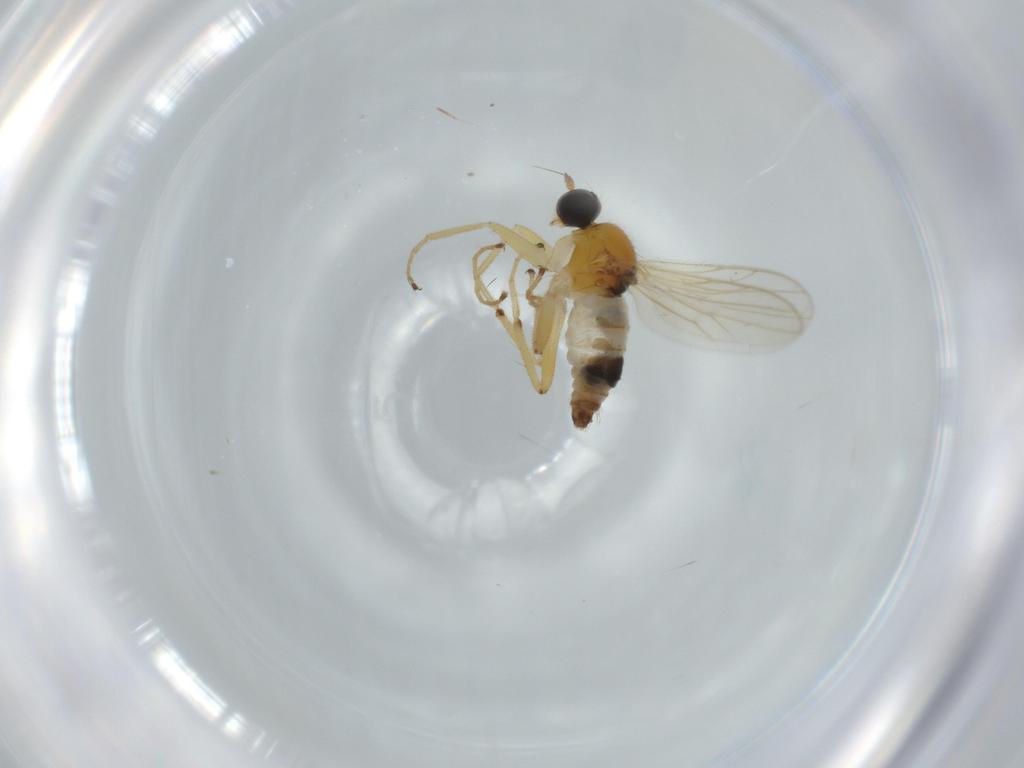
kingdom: Animalia
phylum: Arthropoda
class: Insecta
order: Diptera
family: Hybotidae
